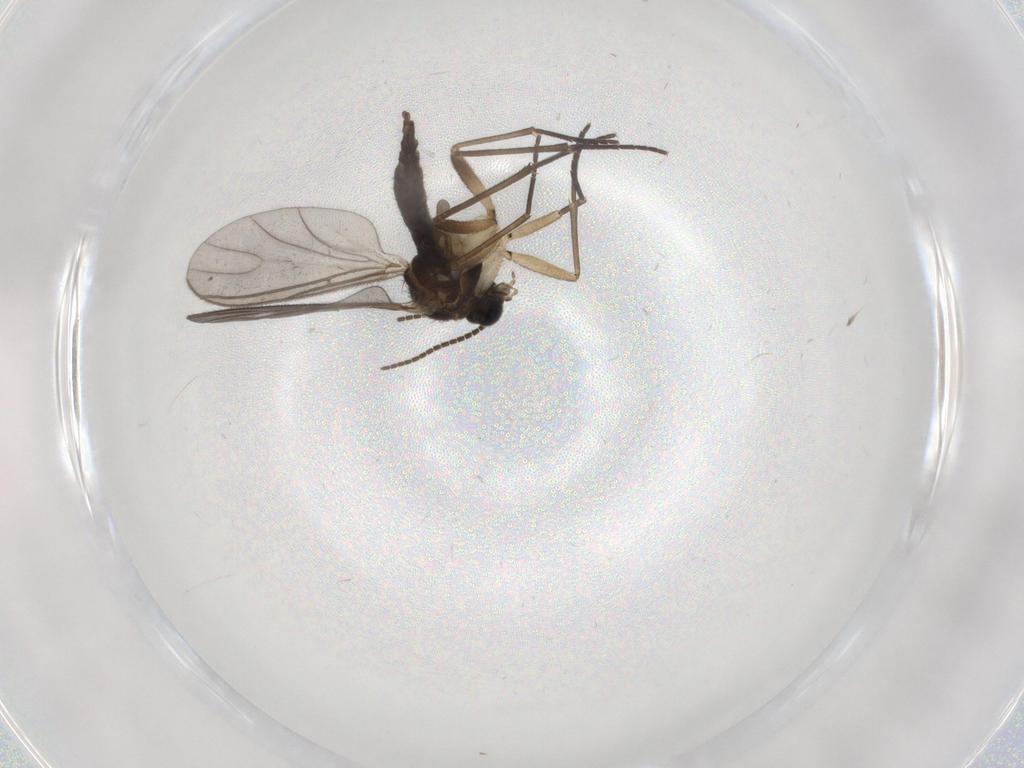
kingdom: Animalia
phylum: Arthropoda
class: Insecta
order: Diptera
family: Sciaridae
